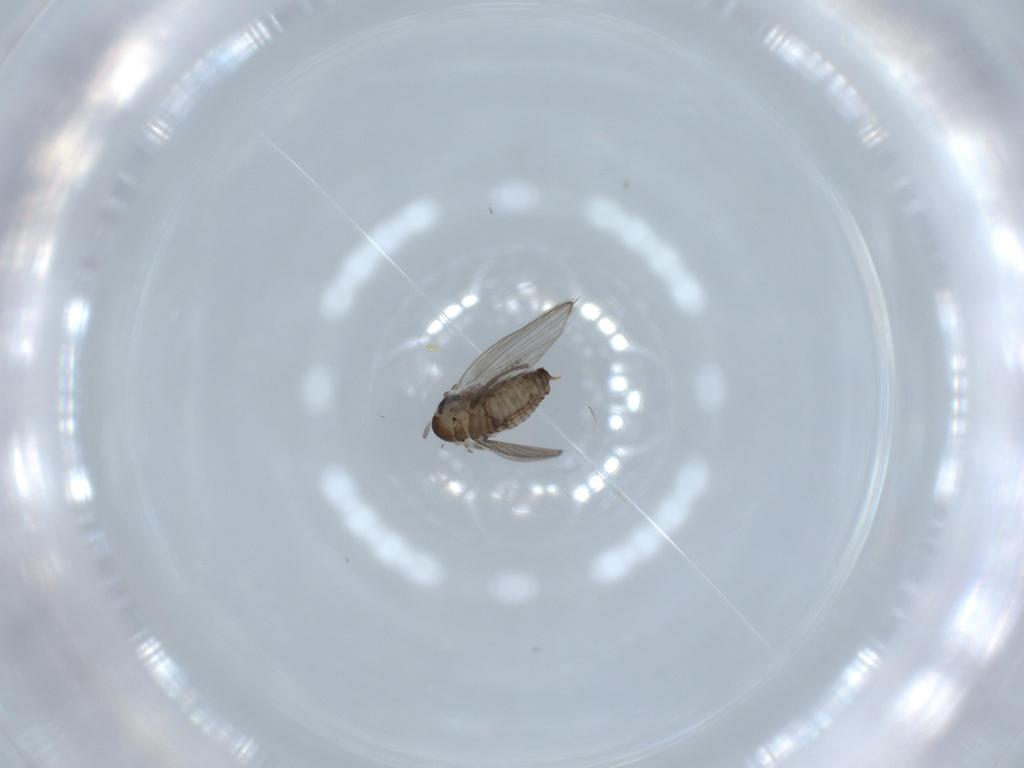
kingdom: Animalia
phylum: Arthropoda
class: Insecta
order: Diptera
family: Psychodidae
